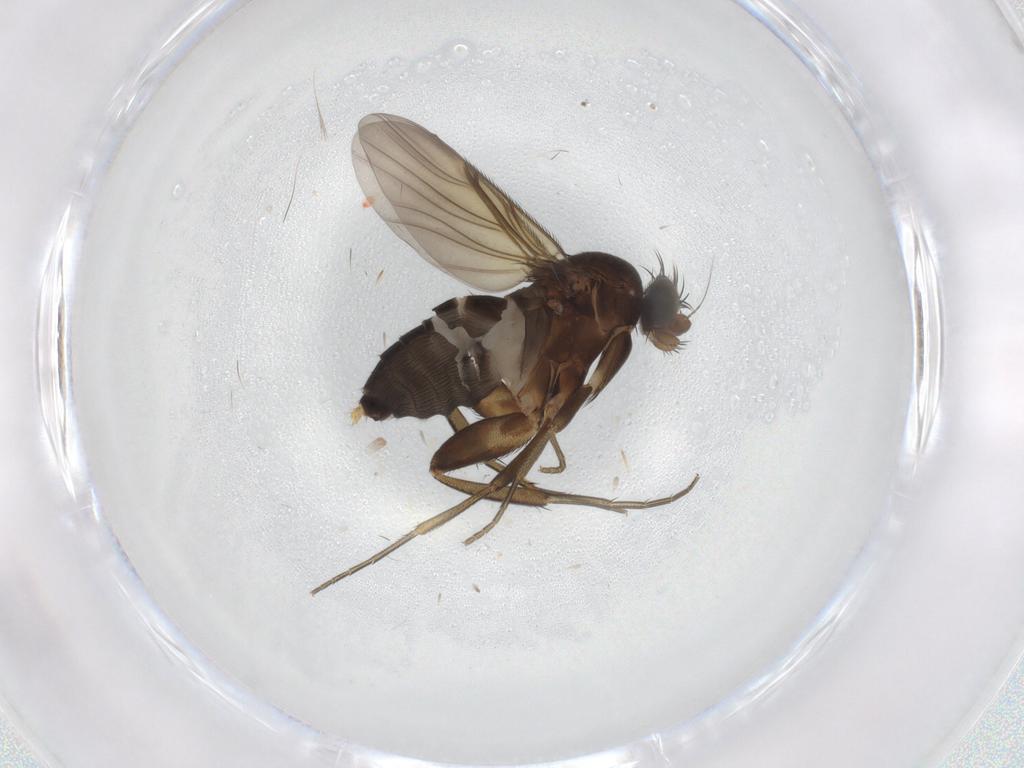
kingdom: Animalia
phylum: Arthropoda
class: Insecta
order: Diptera
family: Phoridae
